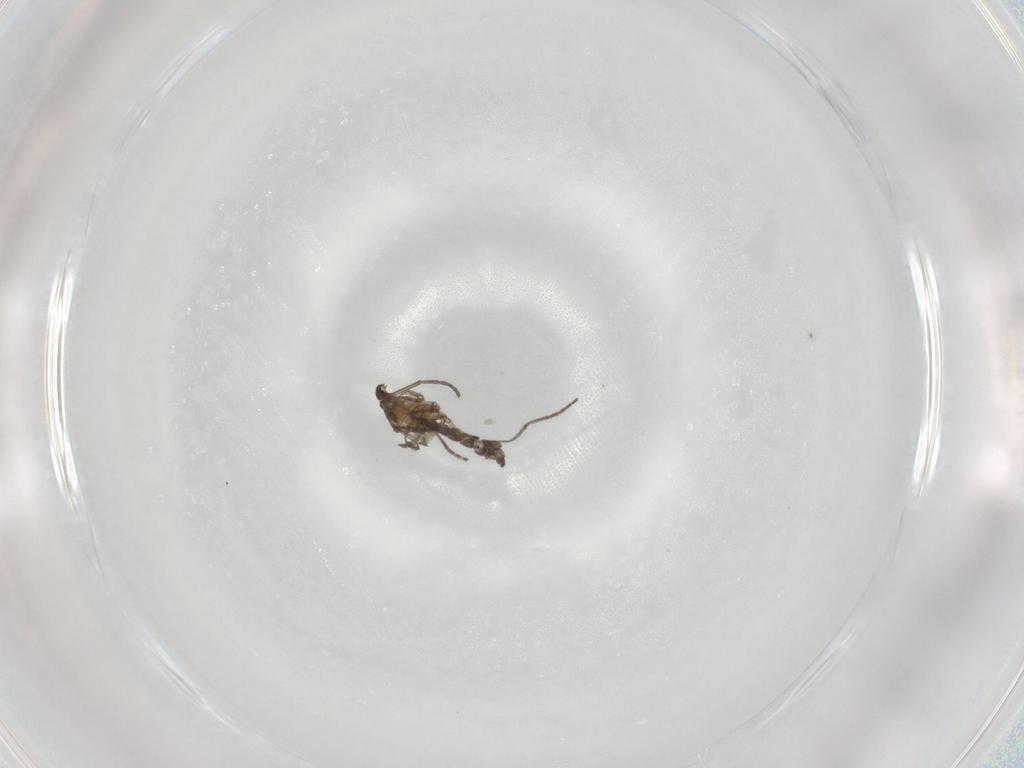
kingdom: Animalia
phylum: Arthropoda
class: Insecta
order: Diptera
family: Sciaridae
